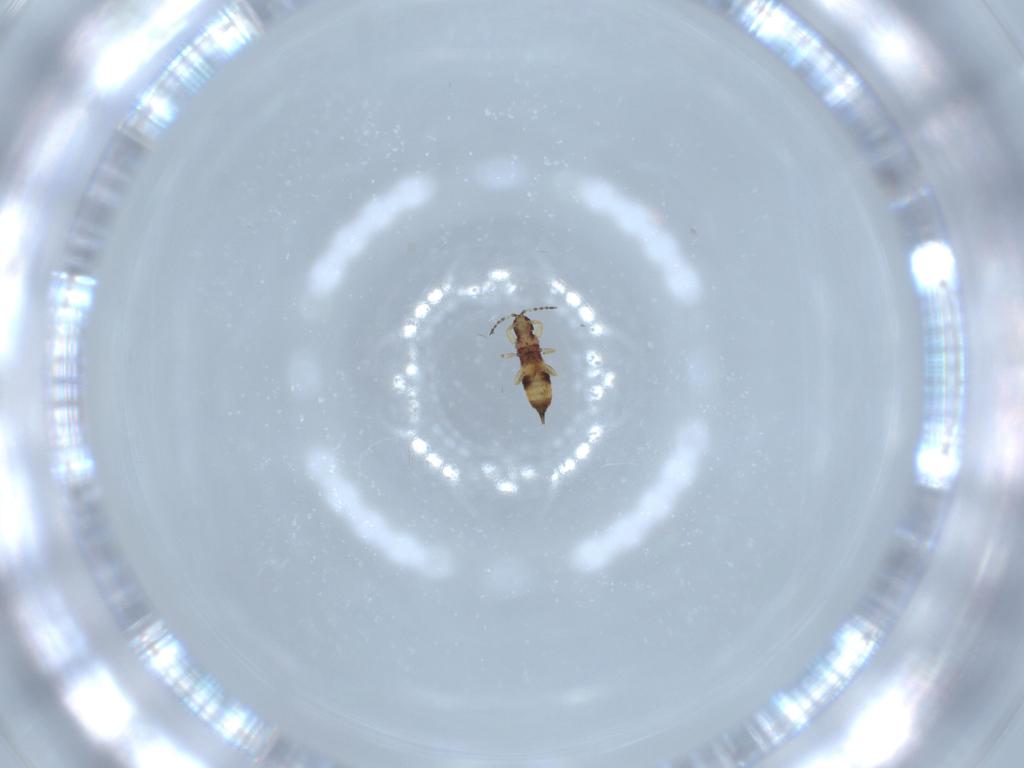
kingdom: Animalia
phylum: Arthropoda
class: Insecta
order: Thysanoptera
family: Phlaeothripidae
